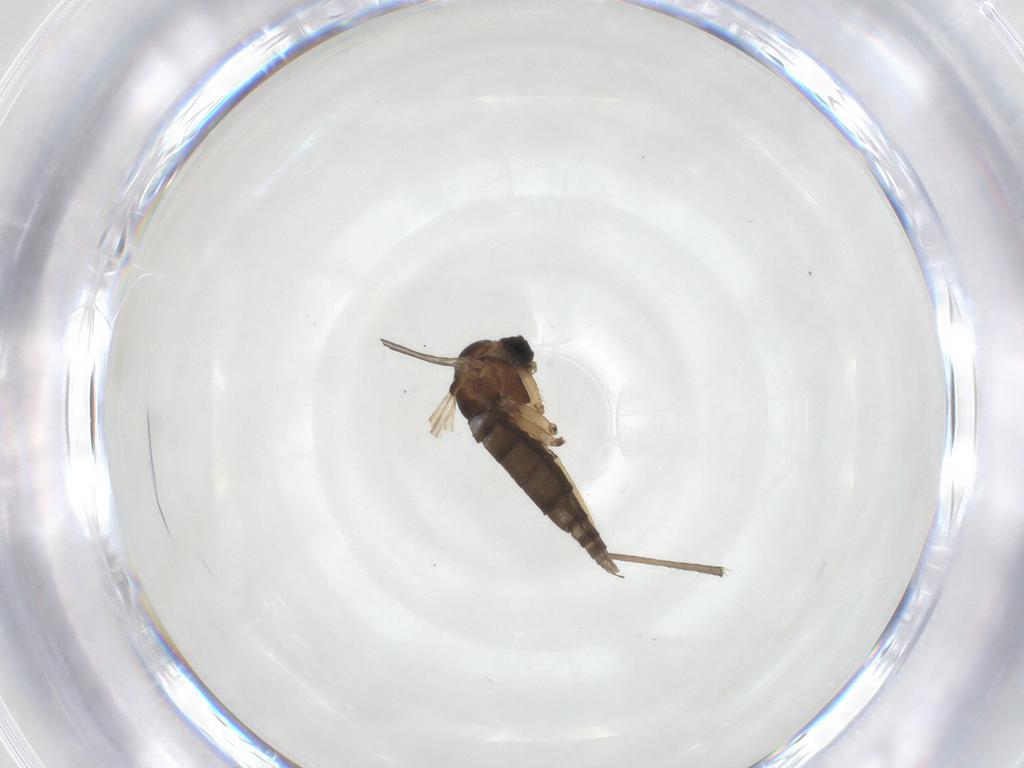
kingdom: Animalia
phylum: Arthropoda
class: Insecta
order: Diptera
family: Sciaridae
